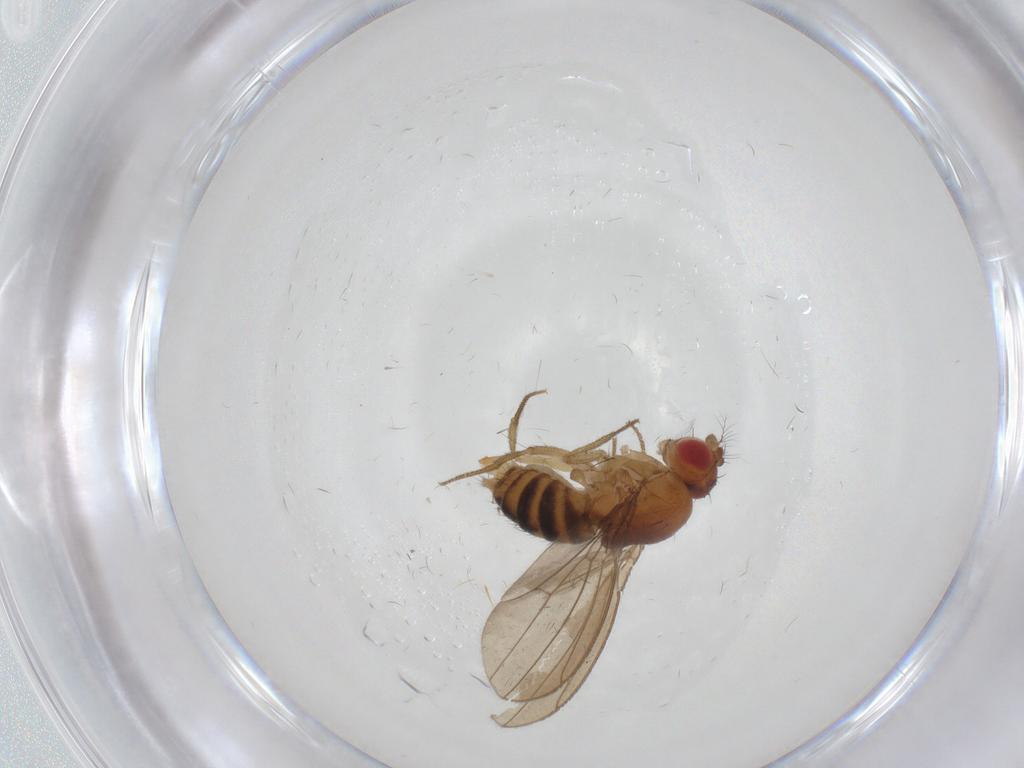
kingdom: Animalia
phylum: Arthropoda
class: Insecta
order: Diptera
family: Drosophilidae
